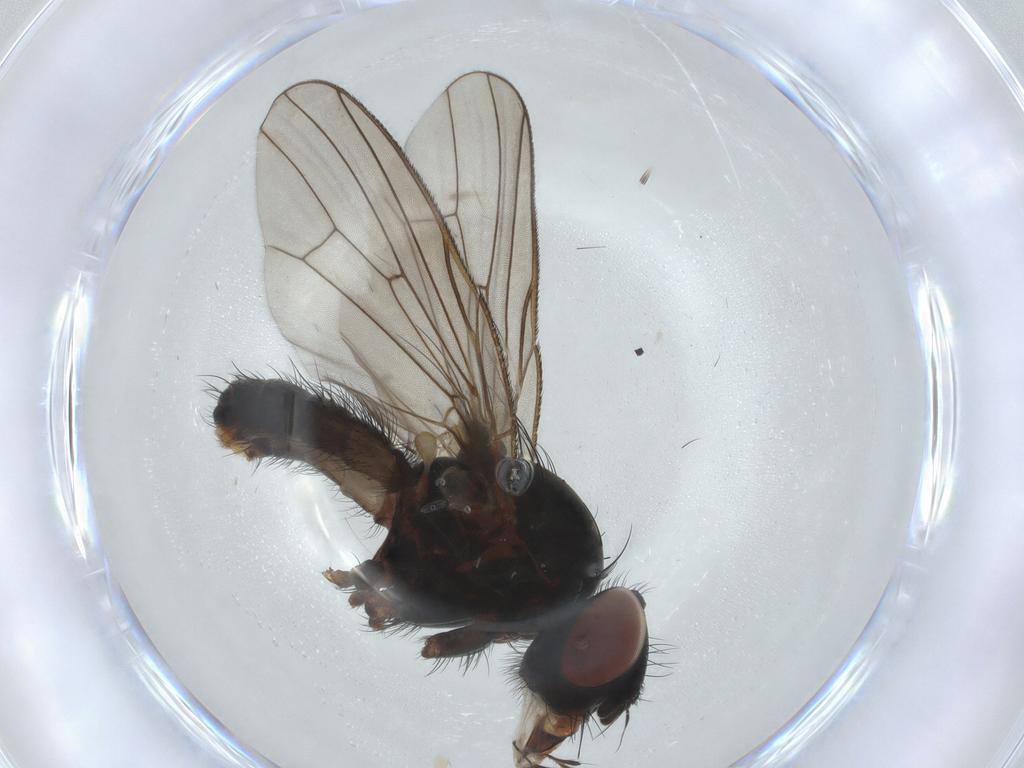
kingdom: Animalia
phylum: Arthropoda
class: Insecta
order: Diptera
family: Anthomyiidae
